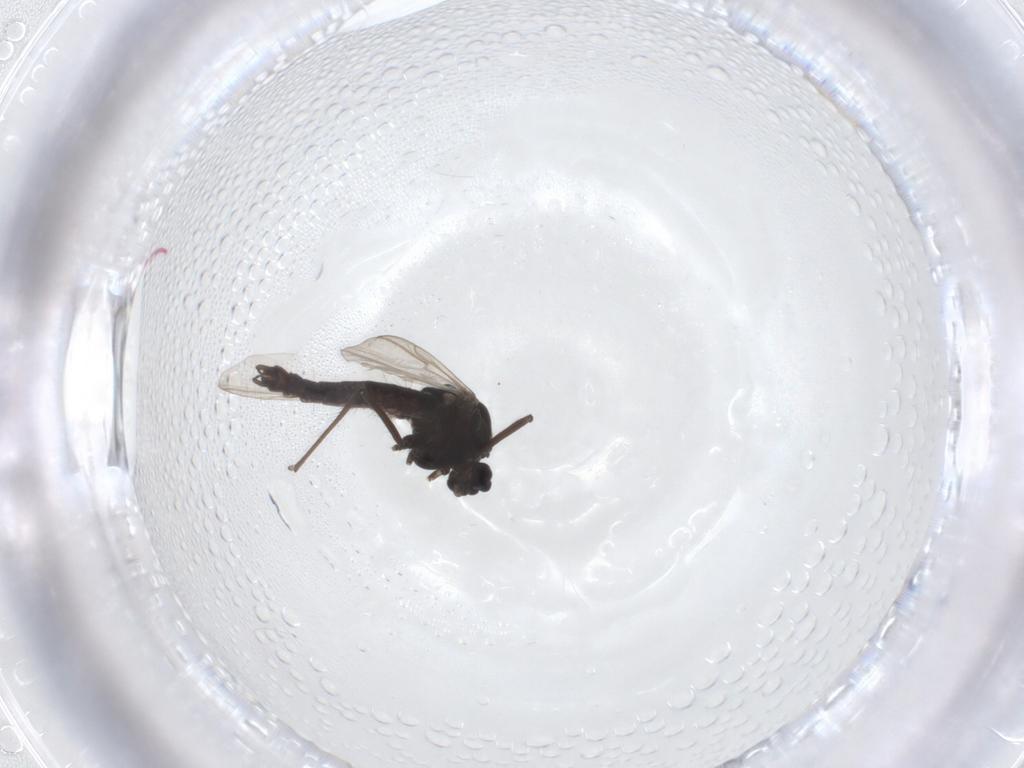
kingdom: Animalia
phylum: Arthropoda
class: Insecta
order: Diptera
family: Chironomidae
